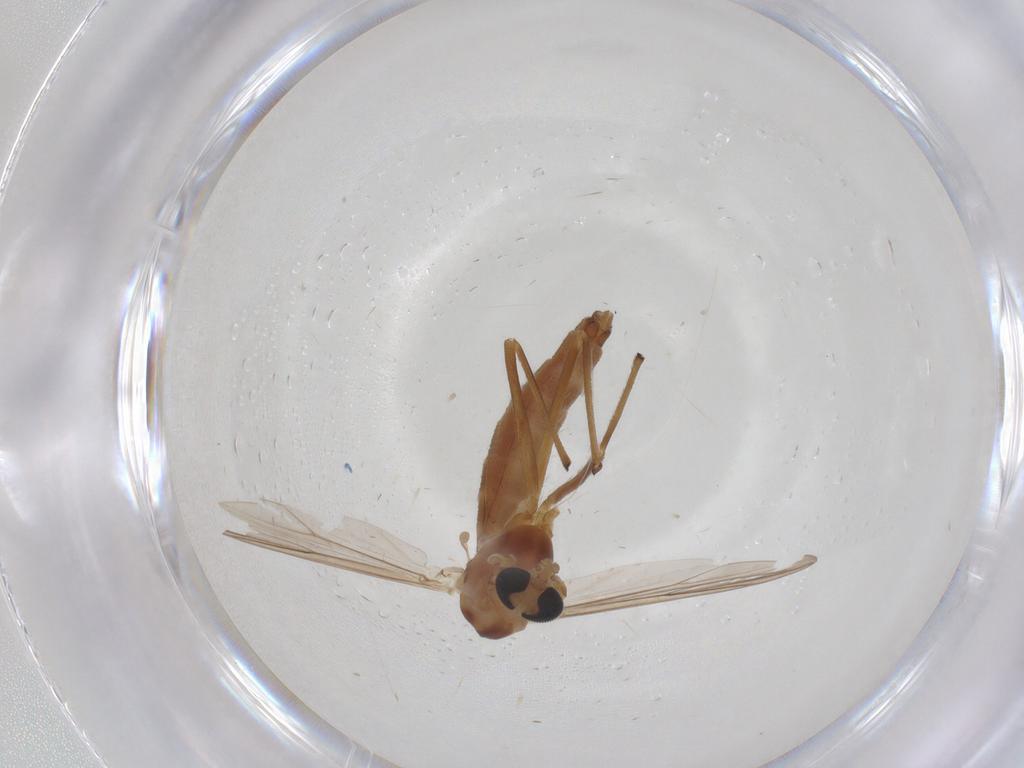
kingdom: Animalia
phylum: Arthropoda
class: Insecta
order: Diptera
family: Chironomidae
